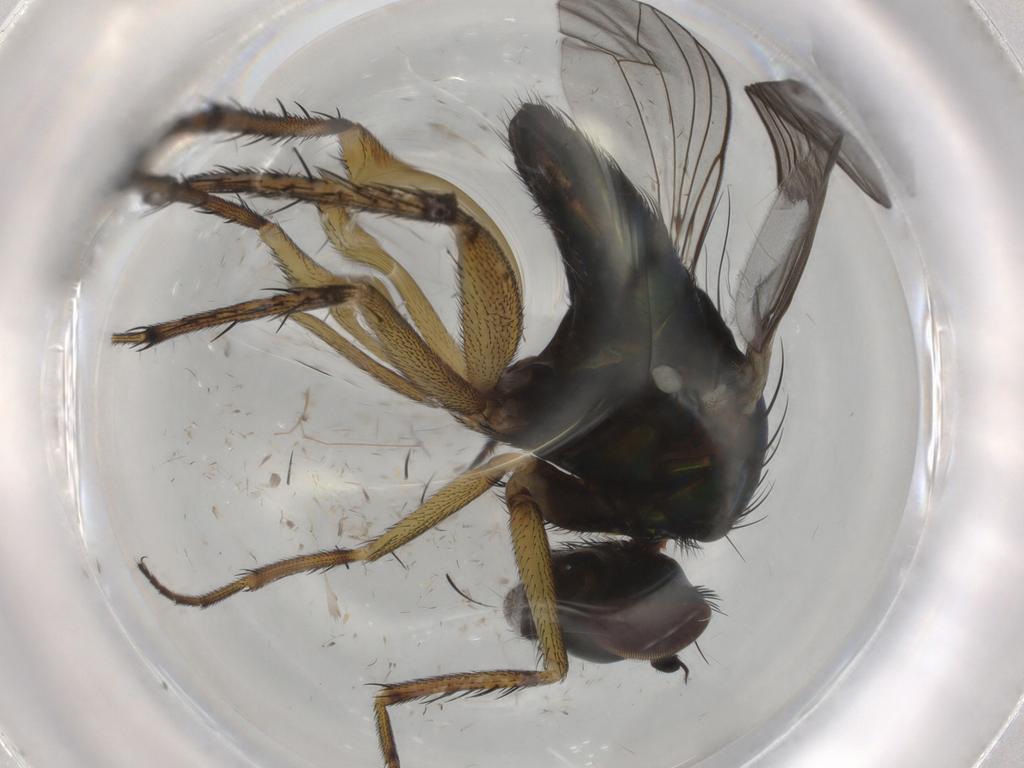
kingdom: Animalia
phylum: Arthropoda
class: Insecta
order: Diptera
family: Dolichopodidae
